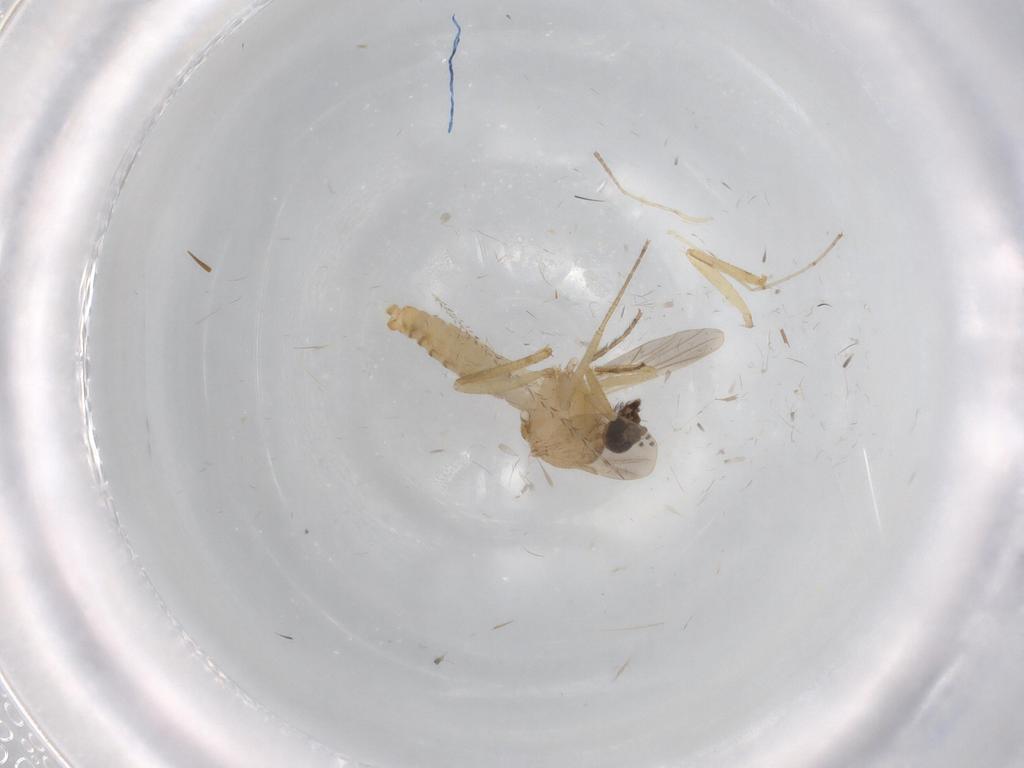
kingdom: Animalia
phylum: Arthropoda
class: Insecta
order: Diptera
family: Ceratopogonidae
